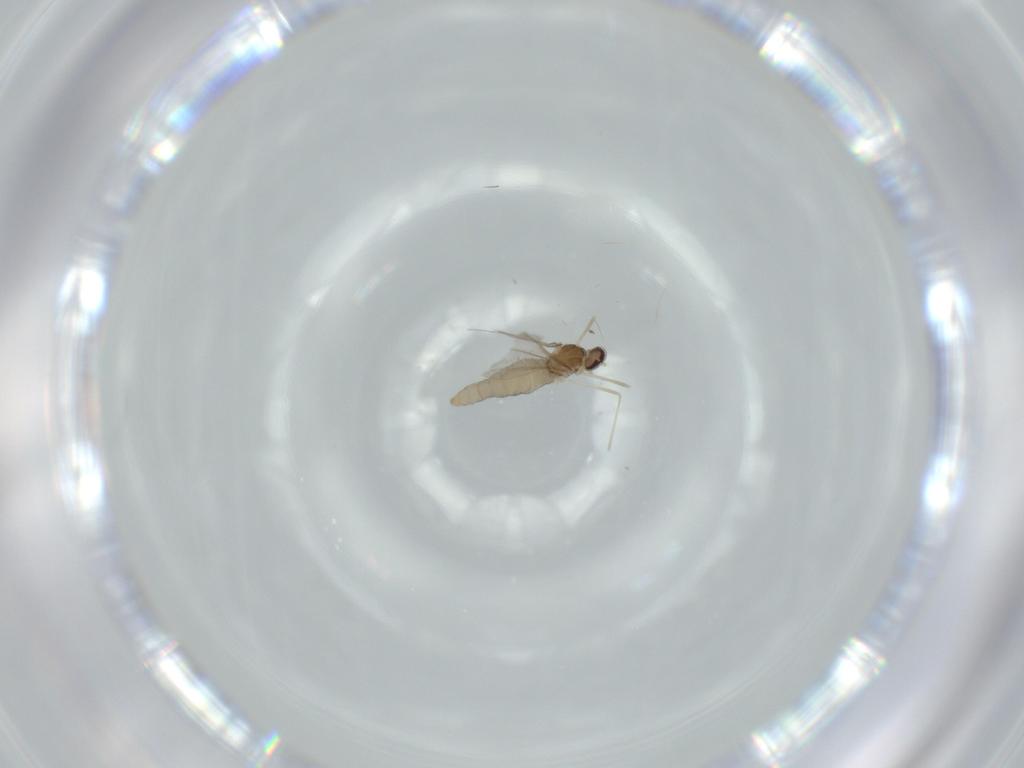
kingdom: Animalia
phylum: Arthropoda
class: Insecta
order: Diptera
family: Cecidomyiidae
